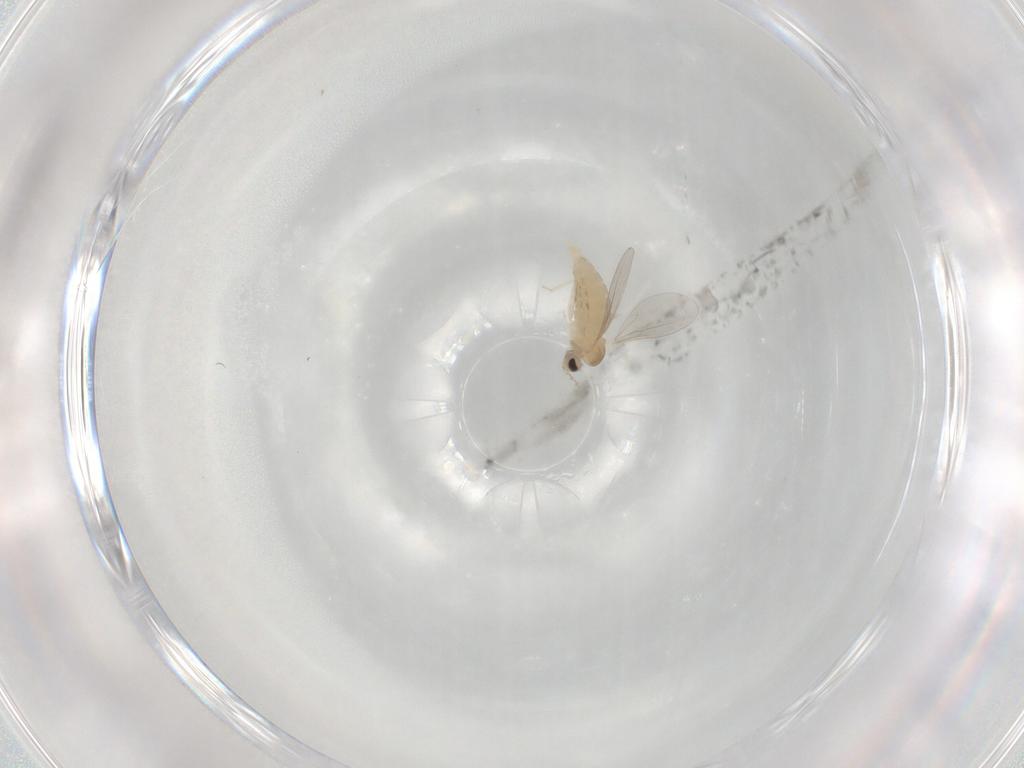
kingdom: Animalia
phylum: Arthropoda
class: Insecta
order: Diptera
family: Cecidomyiidae
